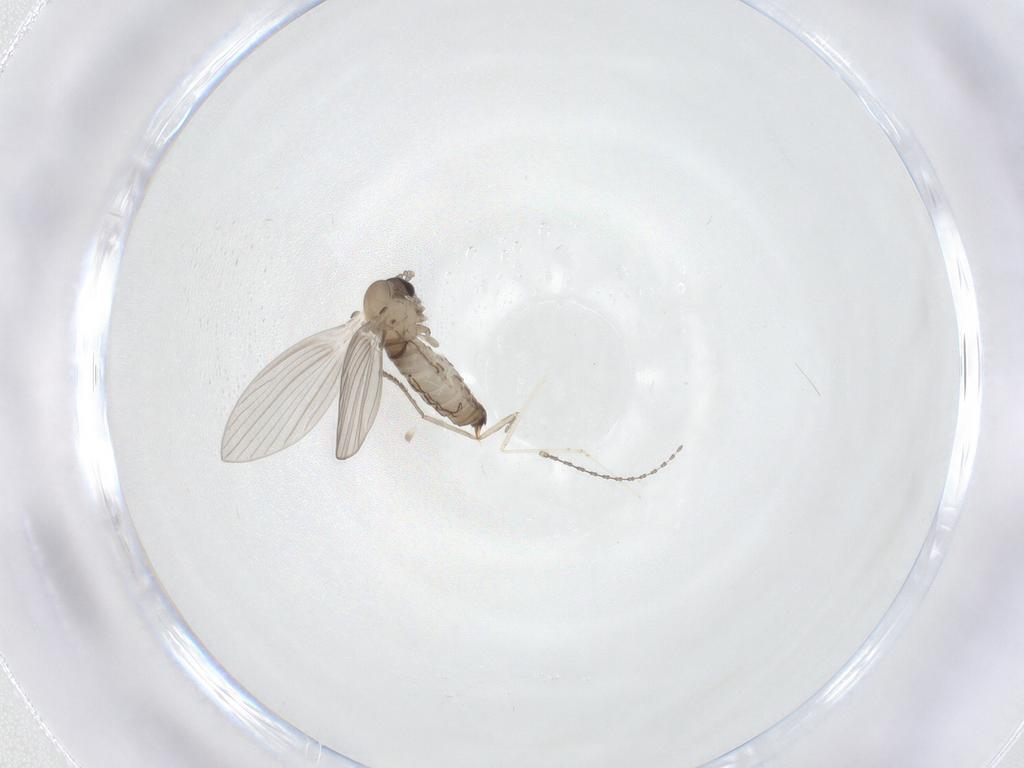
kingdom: Animalia
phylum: Arthropoda
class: Insecta
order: Diptera
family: Psychodidae
